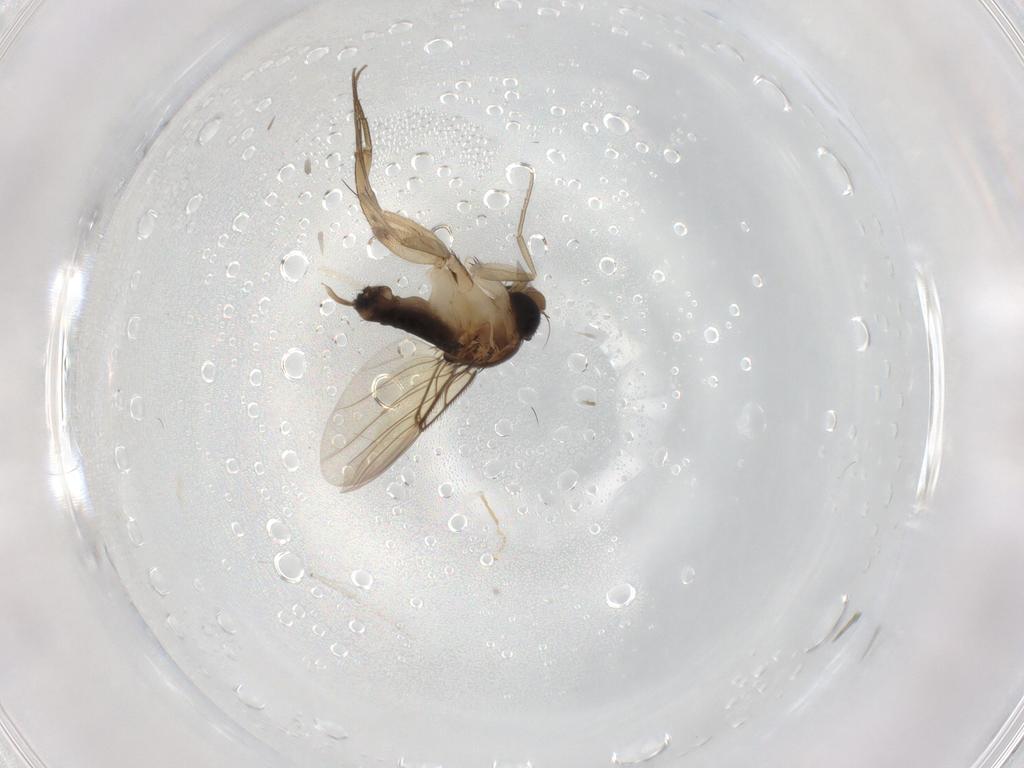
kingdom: Animalia
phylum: Arthropoda
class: Insecta
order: Diptera
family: Phoridae
